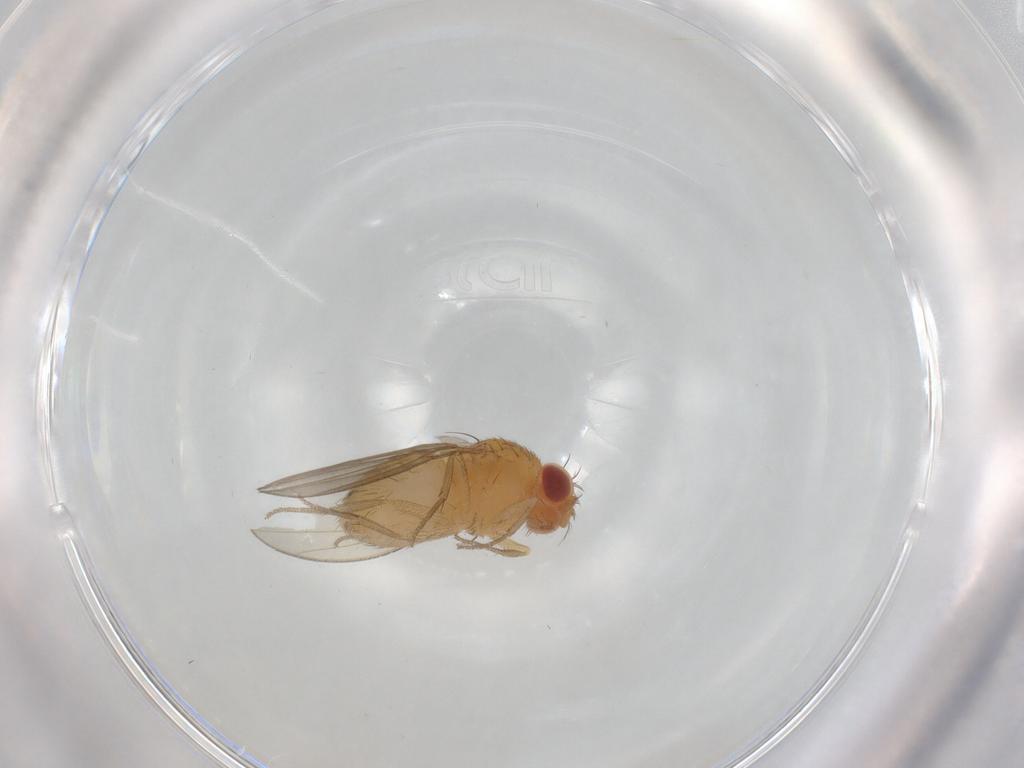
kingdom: Animalia
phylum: Arthropoda
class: Insecta
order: Diptera
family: Drosophilidae
